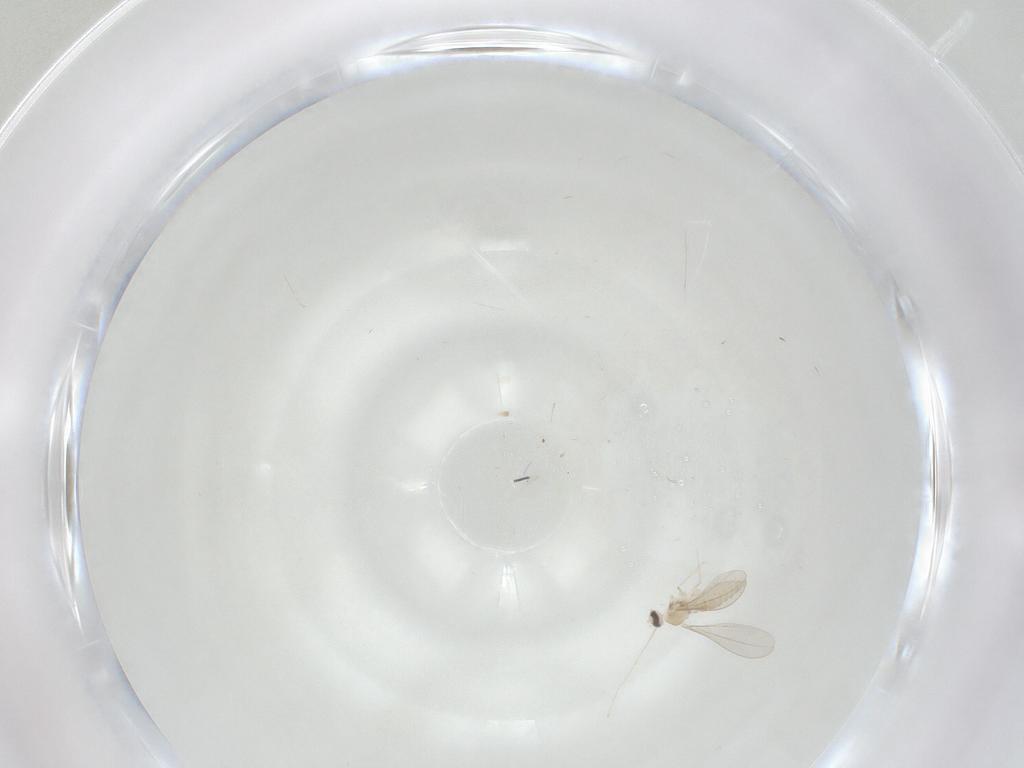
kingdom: Animalia
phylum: Arthropoda
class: Insecta
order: Diptera
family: Cecidomyiidae
